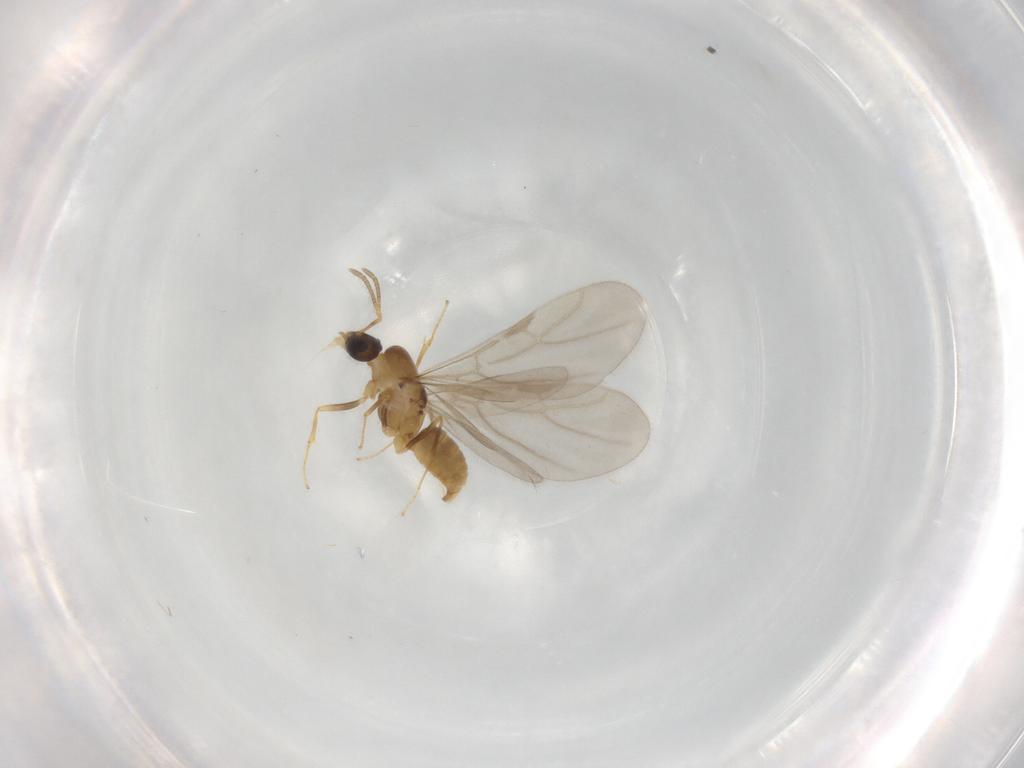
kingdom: Animalia
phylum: Arthropoda
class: Insecta
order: Hymenoptera
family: Formicidae
